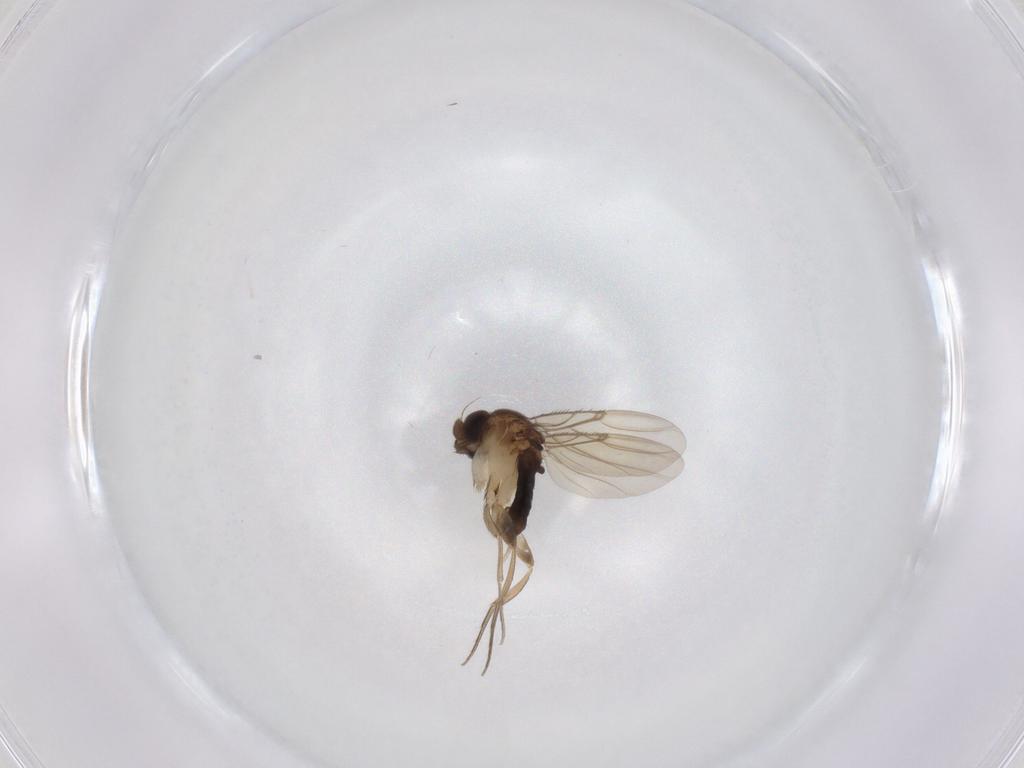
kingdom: Animalia
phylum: Arthropoda
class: Insecta
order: Diptera
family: Phoridae
